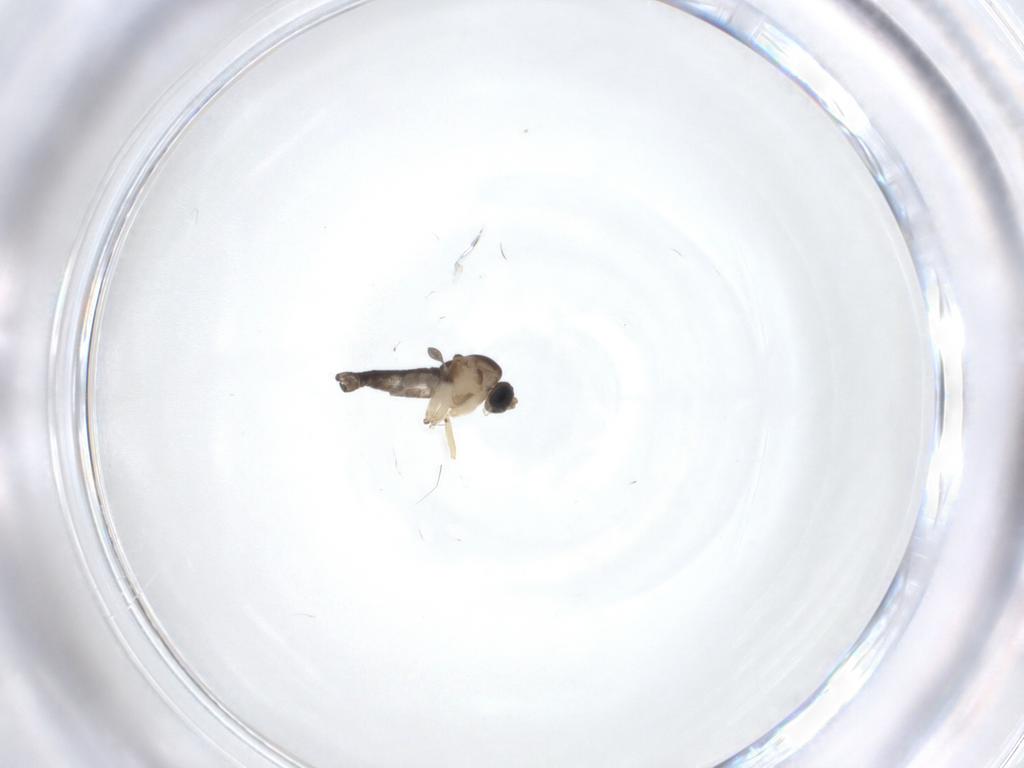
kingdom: Animalia
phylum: Arthropoda
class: Insecta
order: Diptera
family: Sciaridae
